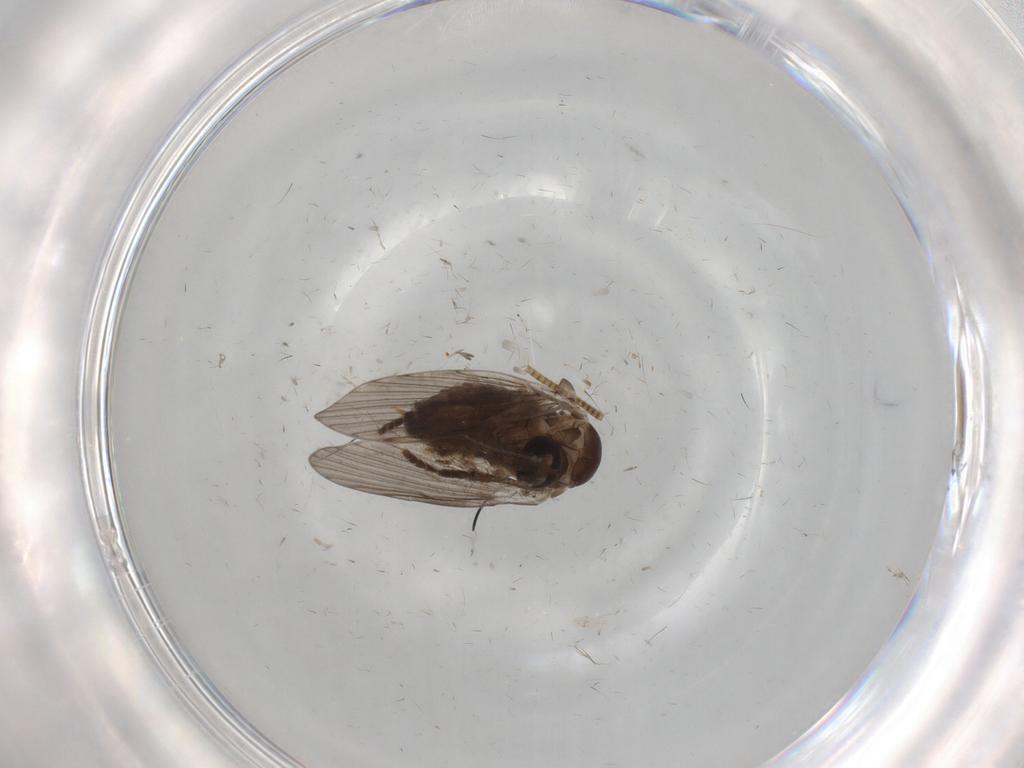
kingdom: Animalia
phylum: Arthropoda
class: Insecta
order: Diptera
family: Psychodidae
